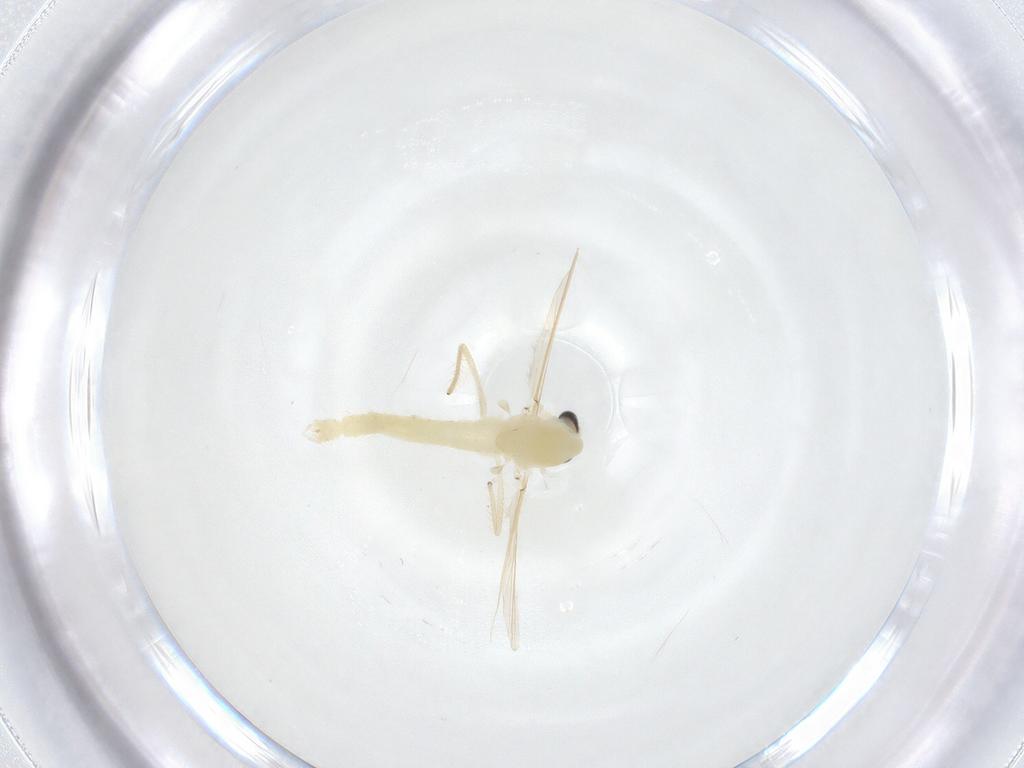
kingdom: Animalia
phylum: Arthropoda
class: Insecta
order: Diptera
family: Chironomidae
